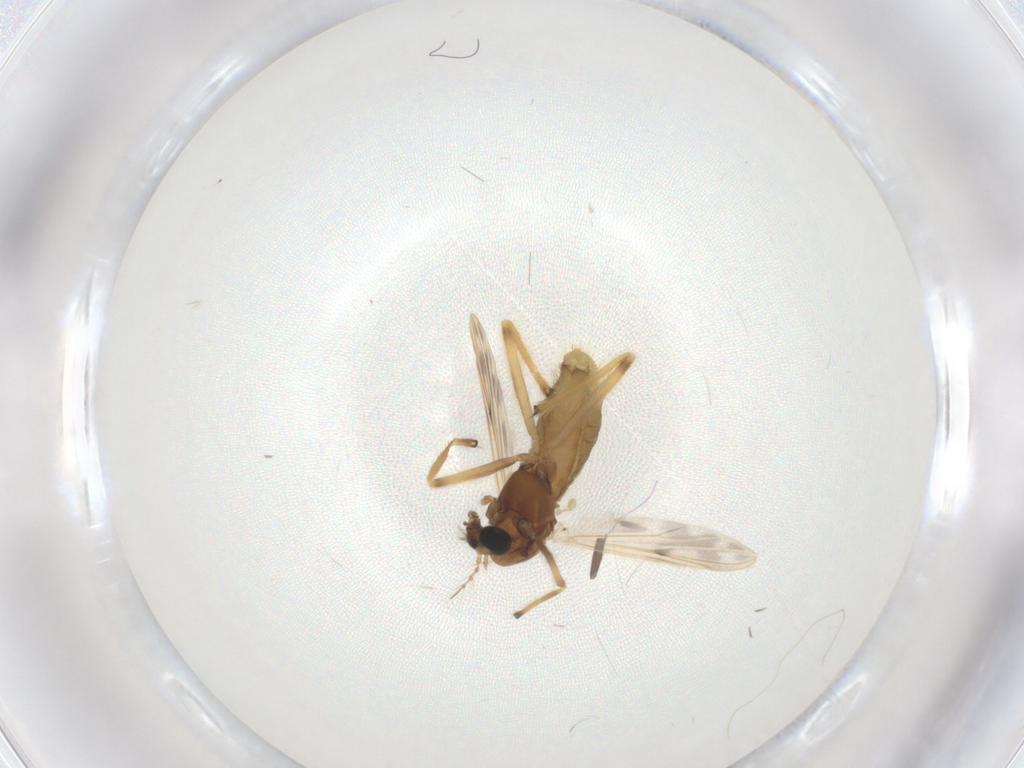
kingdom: Animalia
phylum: Arthropoda
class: Insecta
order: Diptera
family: Chironomidae
